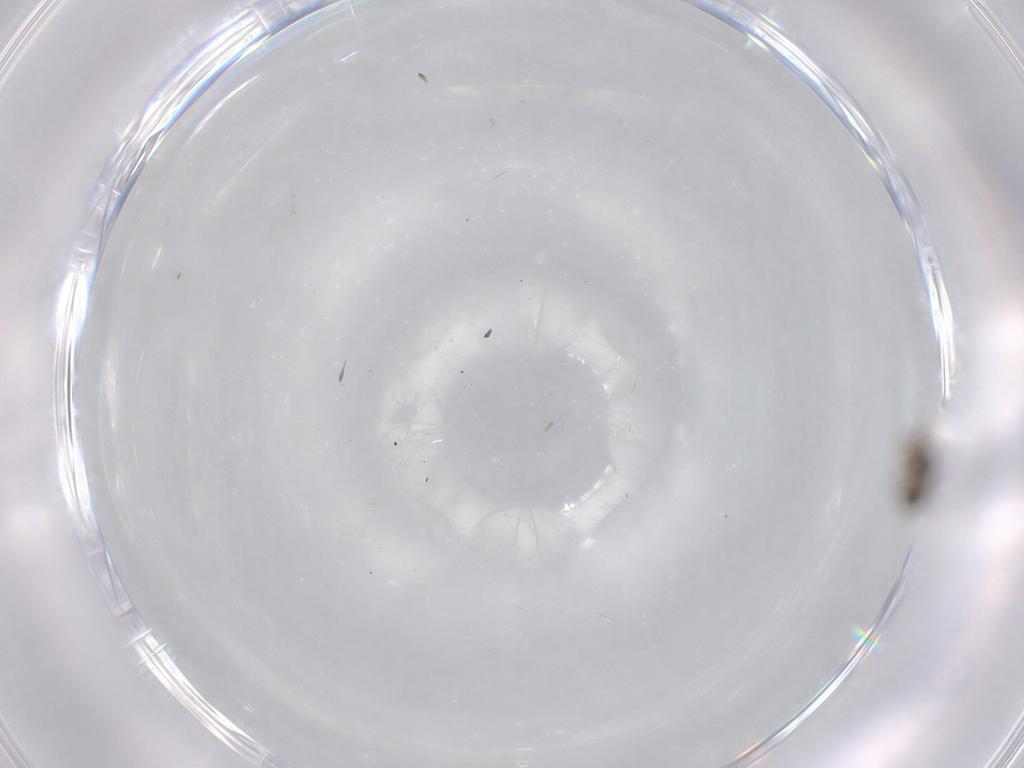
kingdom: Animalia
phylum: Arthropoda
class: Insecta
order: Diptera
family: Phoridae
